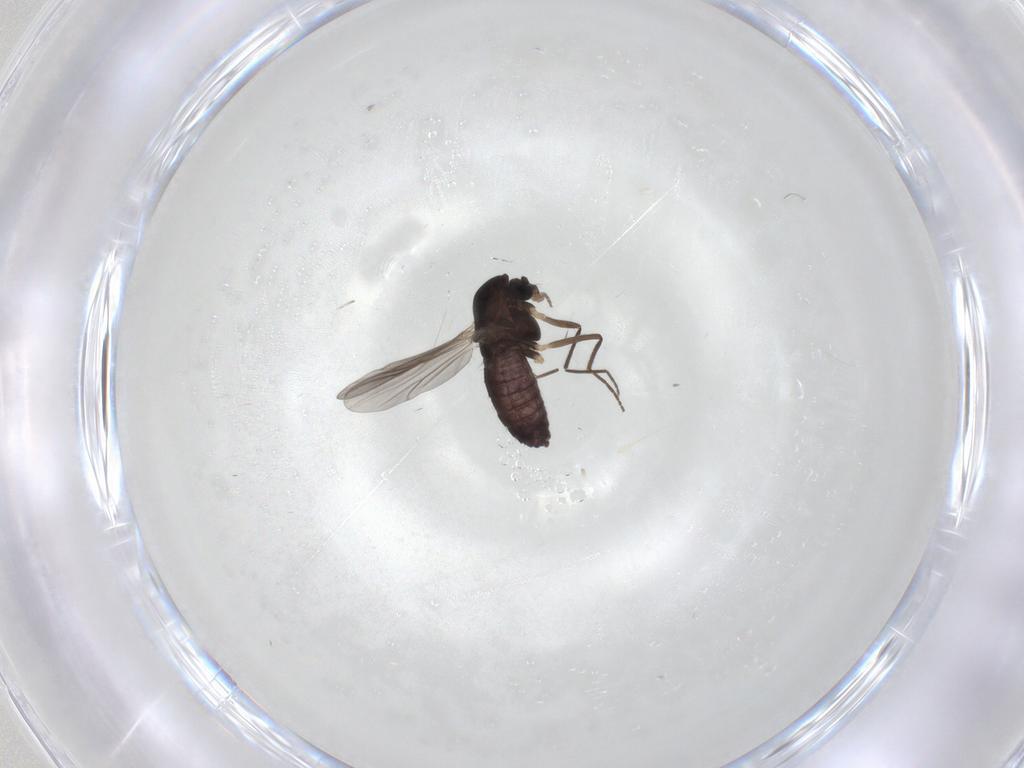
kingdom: Animalia
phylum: Arthropoda
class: Insecta
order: Diptera
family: Chironomidae
